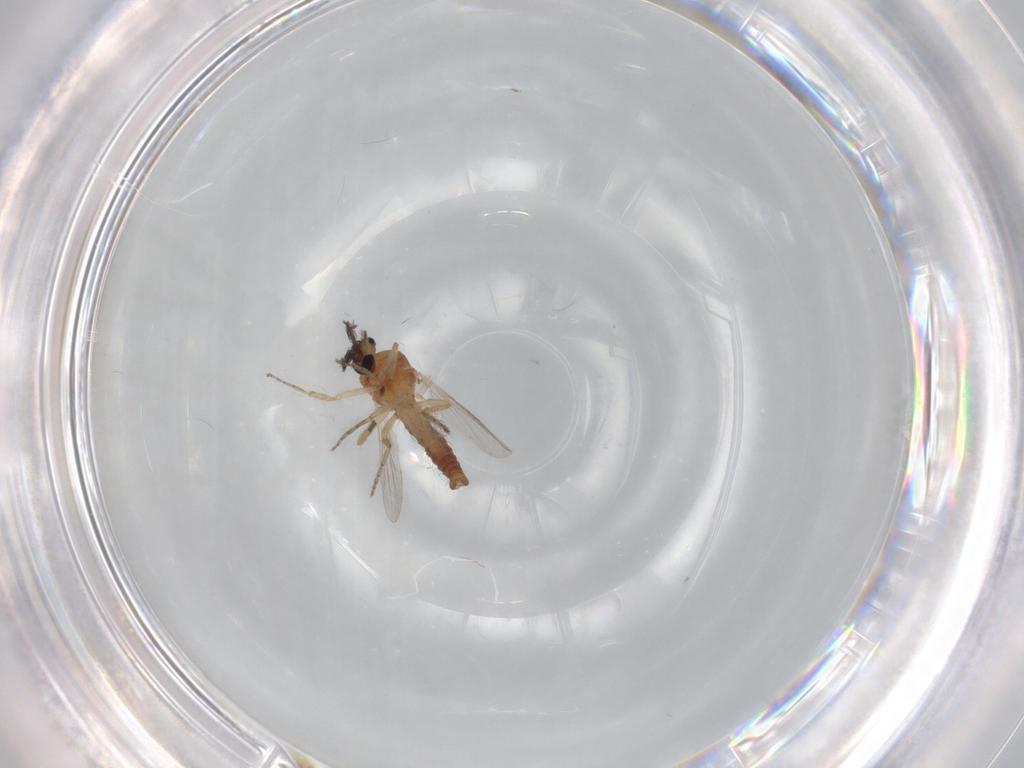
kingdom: Animalia
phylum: Arthropoda
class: Insecta
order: Diptera
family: Ceratopogonidae
